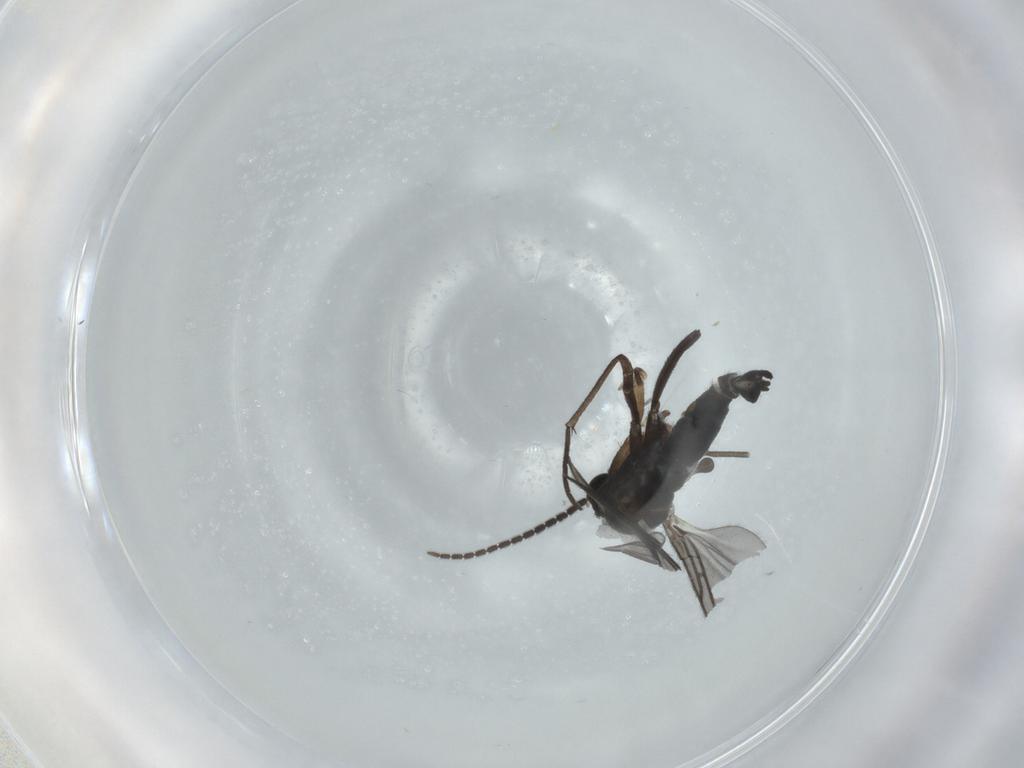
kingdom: Animalia
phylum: Arthropoda
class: Insecta
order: Diptera
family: Sciaridae
